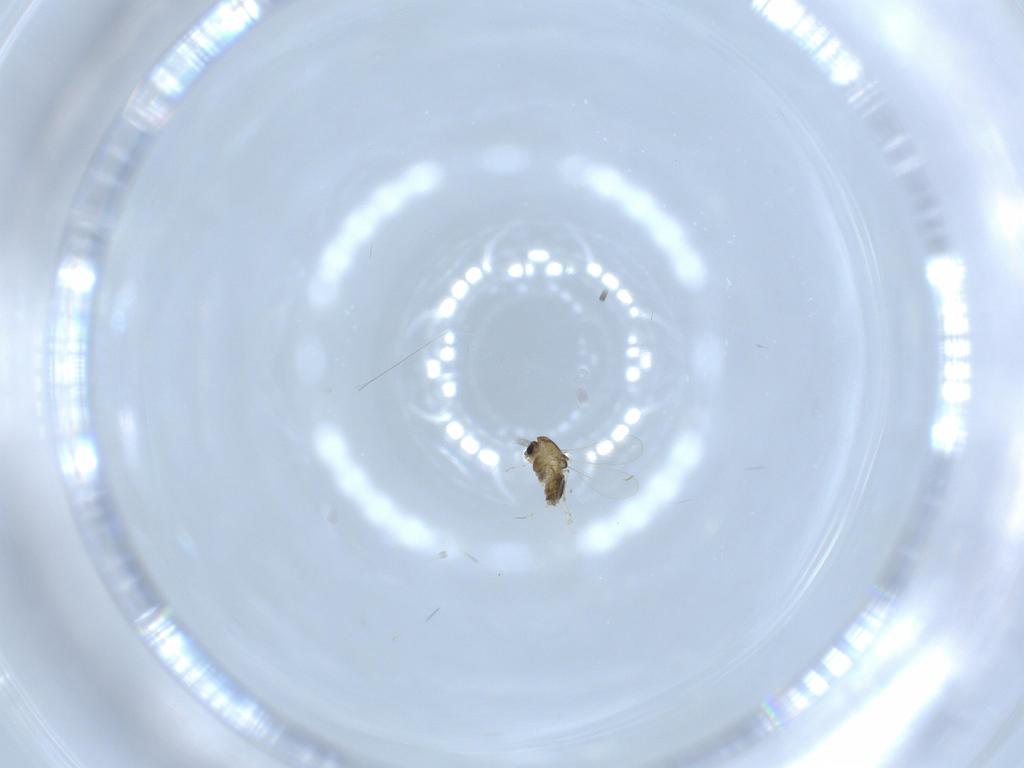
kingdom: Animalia
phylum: Arthropoda
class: Insecta
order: Diptera
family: Chironomidae
